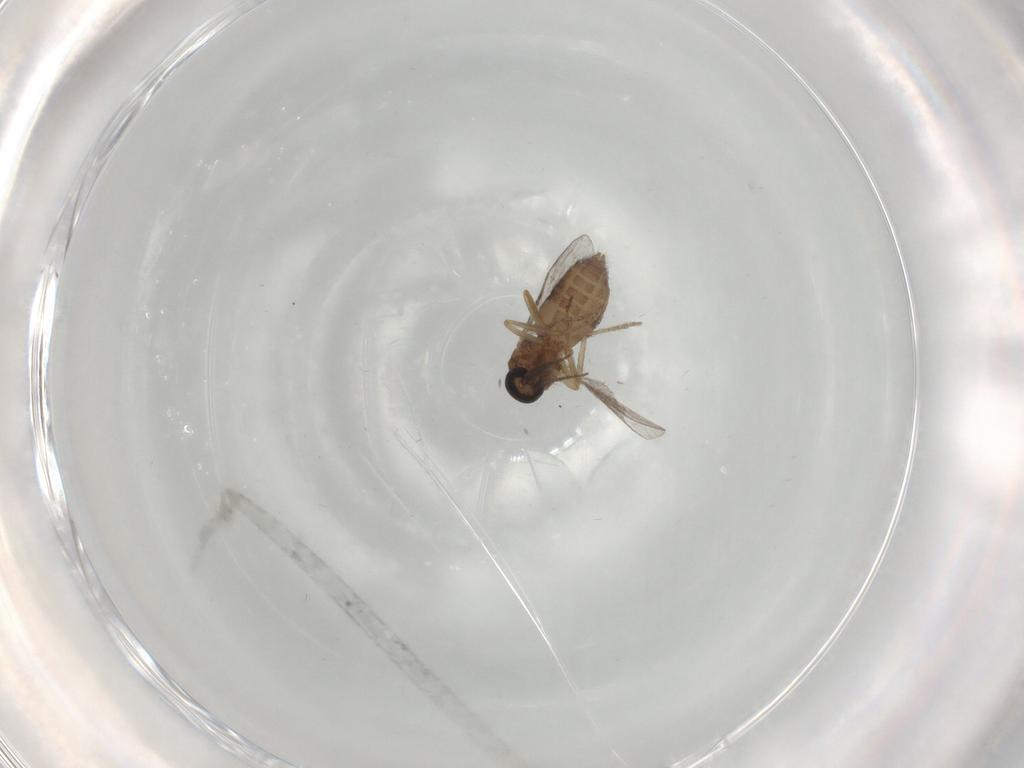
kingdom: Animalia
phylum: Arthropoda
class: Insecta
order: Diptera
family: Ceratopogonidae
